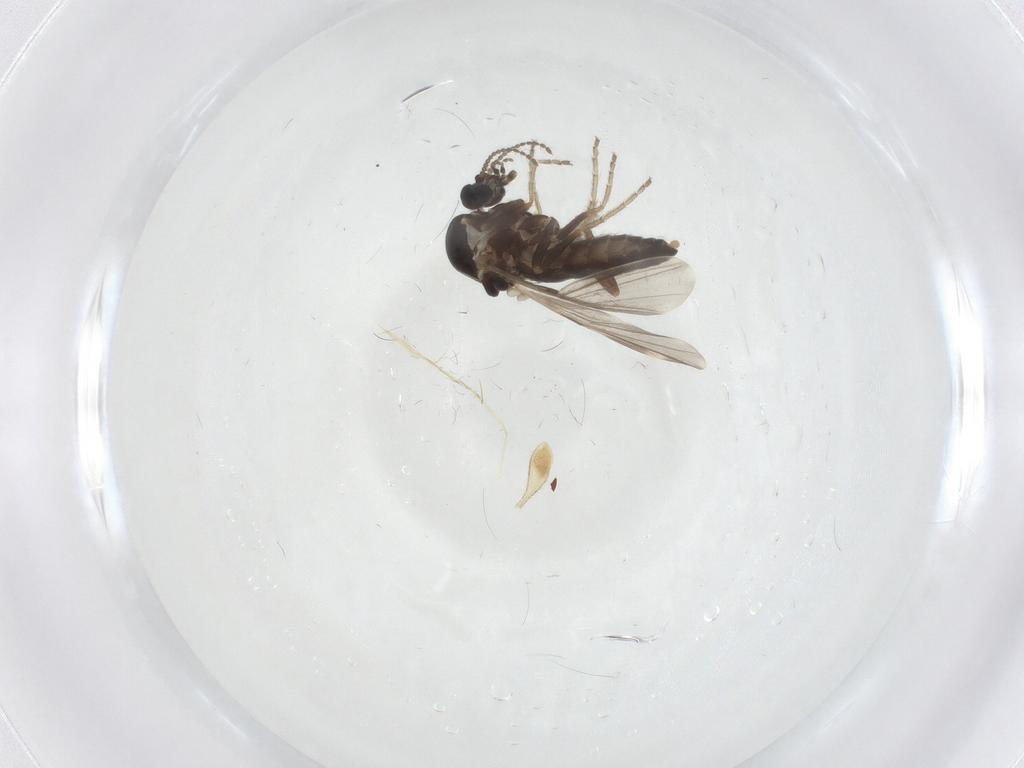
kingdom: Animalia
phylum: Arthropoda
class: Insecta
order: Diptera
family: Ceratopogonidae
